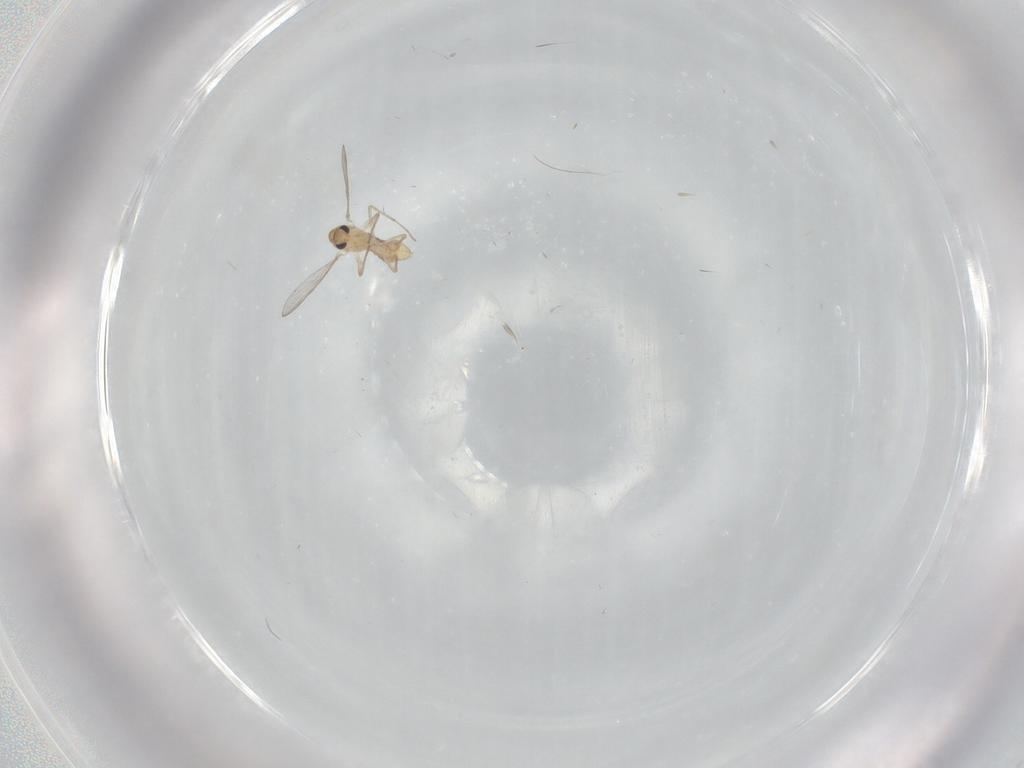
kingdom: Animalia
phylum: Arthropoda
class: Insecta
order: Diptera
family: Chironomidae
